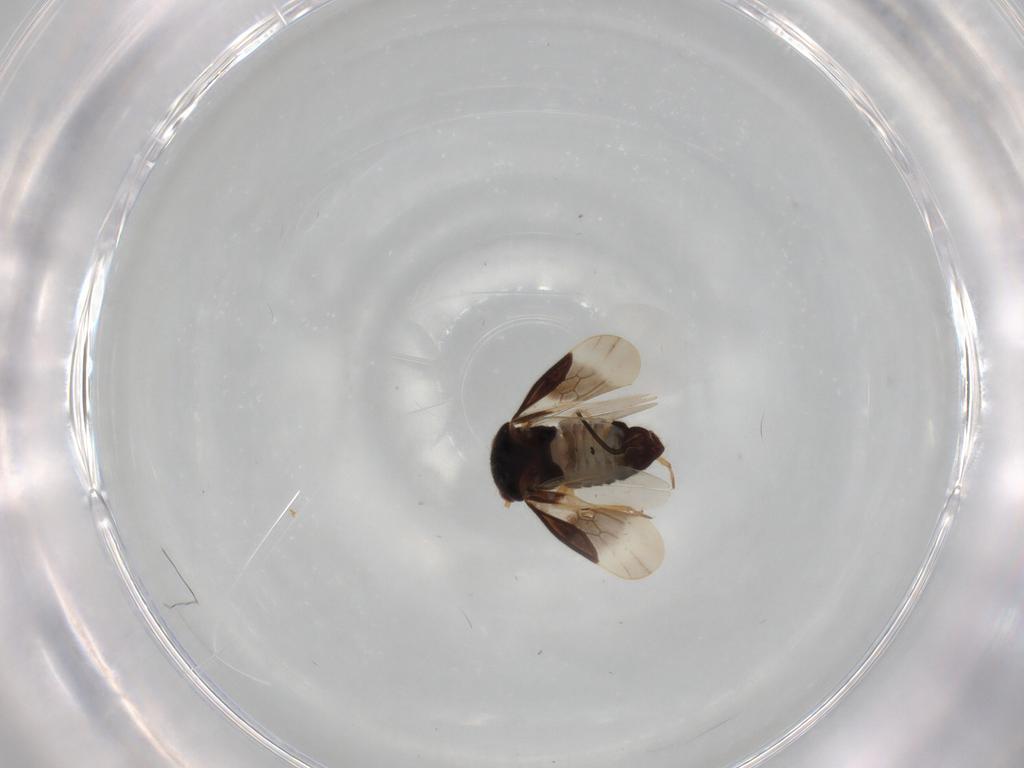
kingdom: Animalia
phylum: Arthropoda
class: Insecta
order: Hemiptera
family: Schizopteridae
